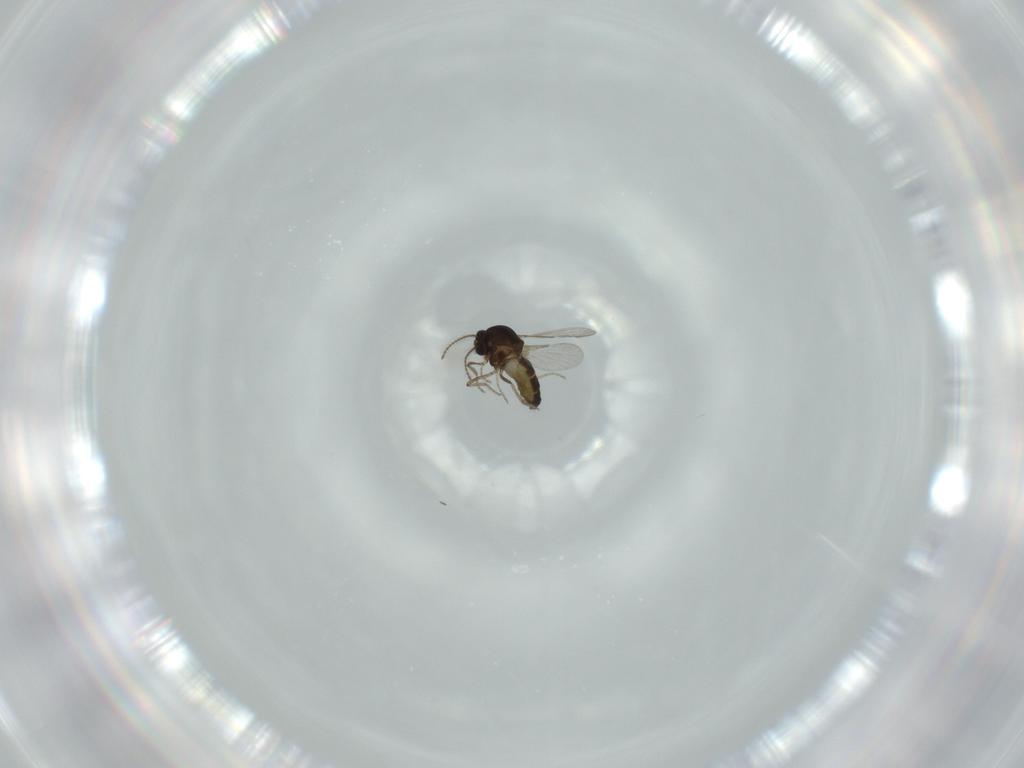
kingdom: Animalia
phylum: Arthropoda
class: Insecta
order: Diptera
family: Ceratopogonidae
